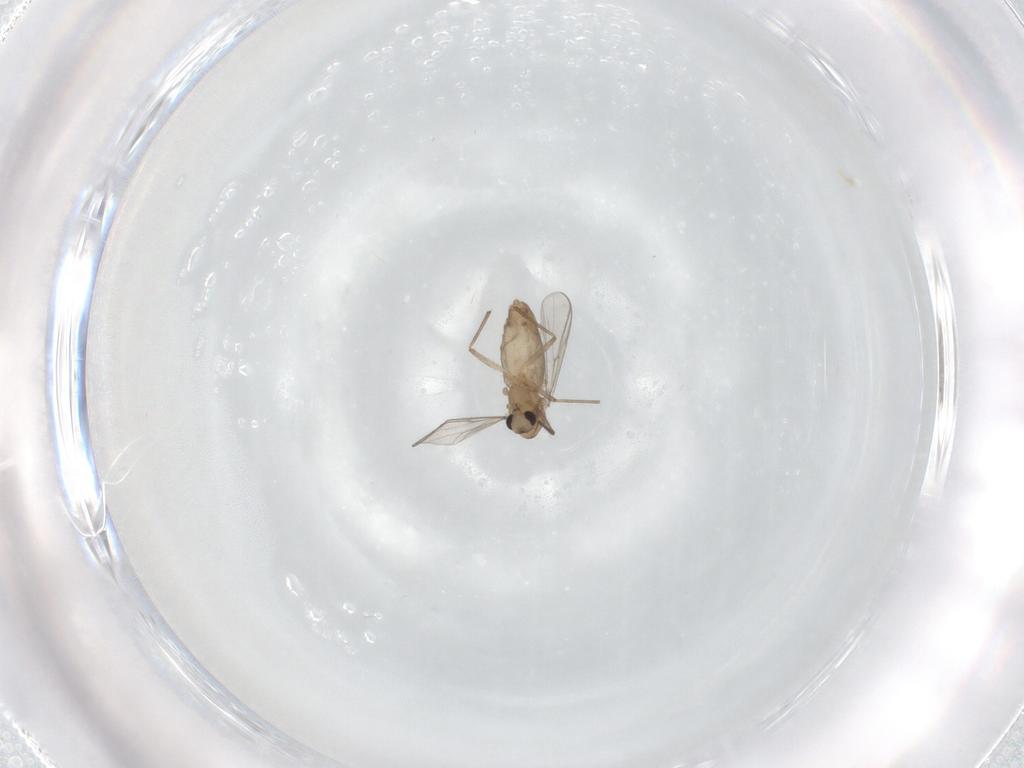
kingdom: Animalia
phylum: Arthropoda
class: Insecta
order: Diptera
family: Chironomidae
